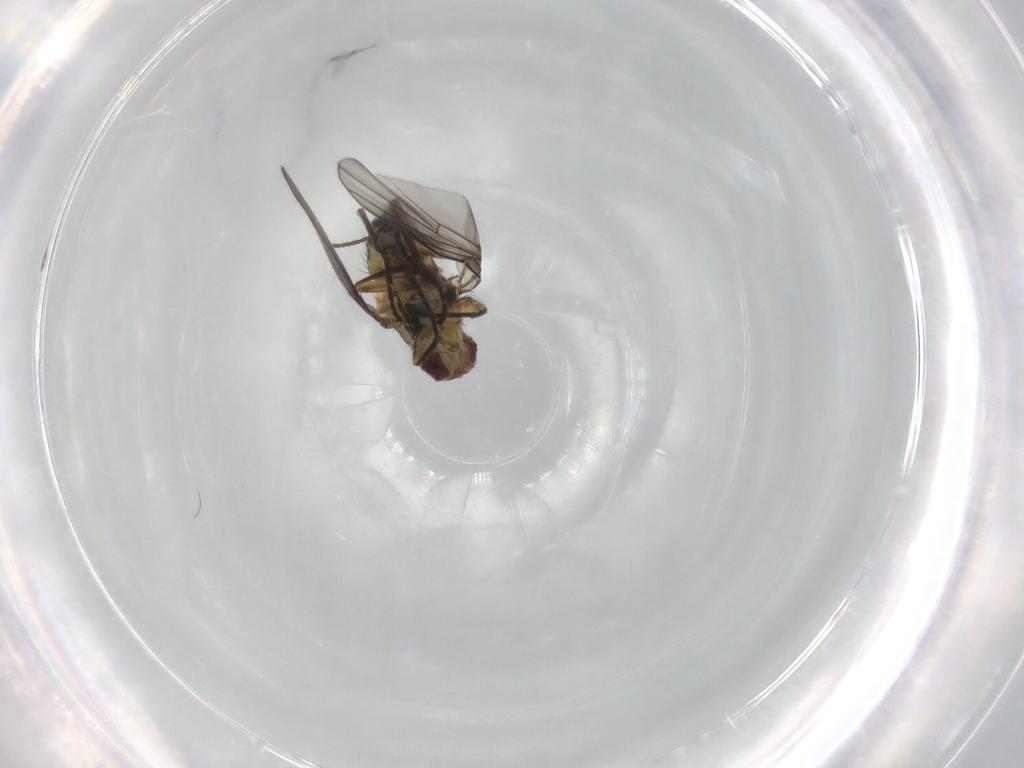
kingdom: Animalia
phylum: Arthropoda
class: Insecta
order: Diptera
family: Agromyzidae
